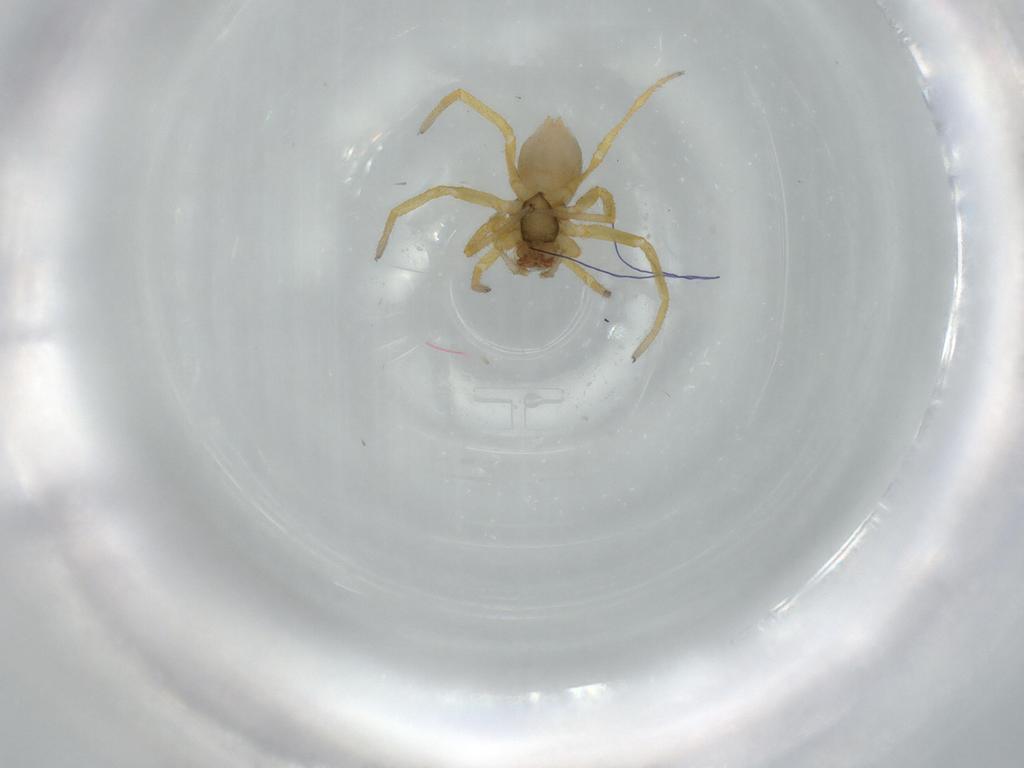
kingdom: Animalia
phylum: Arthropoda
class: Arachnida
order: Araneae
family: Linyphiidae
